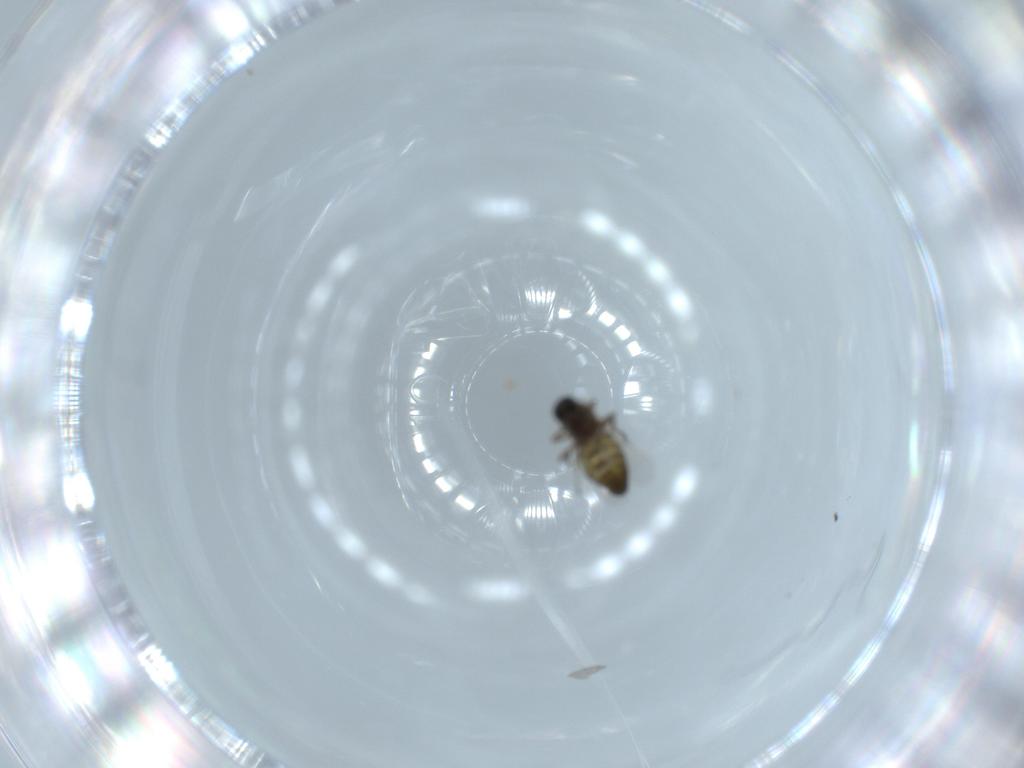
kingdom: Animalia
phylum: Arthropoda
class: Insecta
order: Diptera
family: Cecidomyiidae
